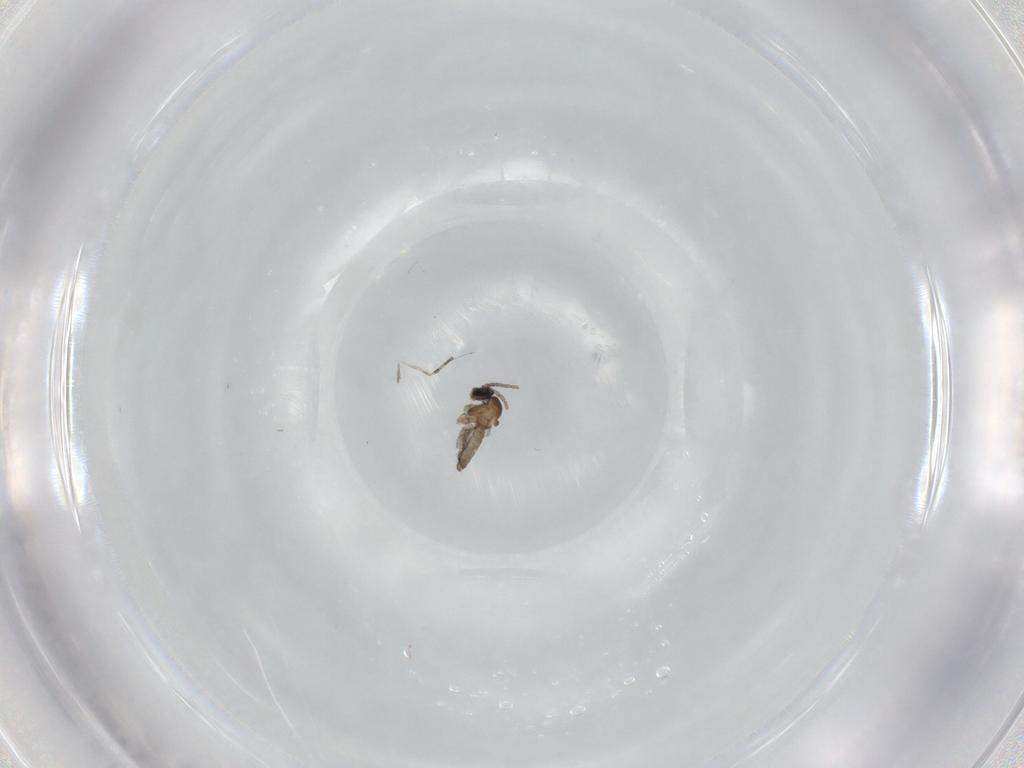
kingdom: Animalia
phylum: Arthropoda
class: Insecta
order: Diptera
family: Cecidomyiidae
